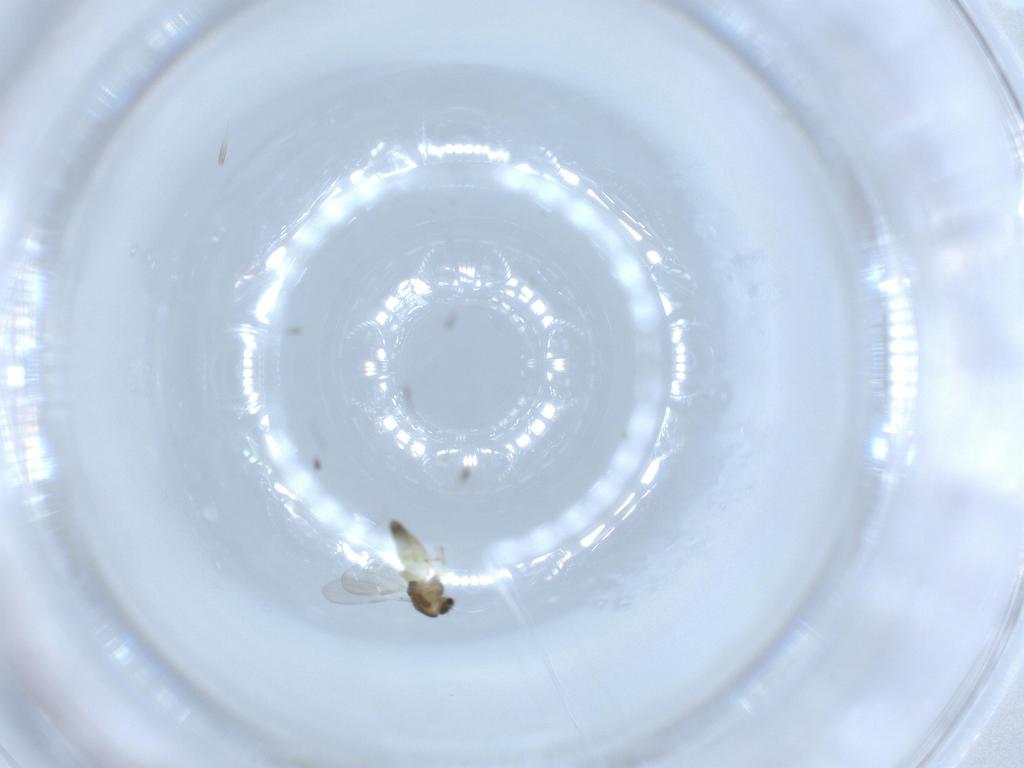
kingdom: Animalia
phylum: Arthropoda
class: Insecta
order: Diptera
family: Chironomidae
